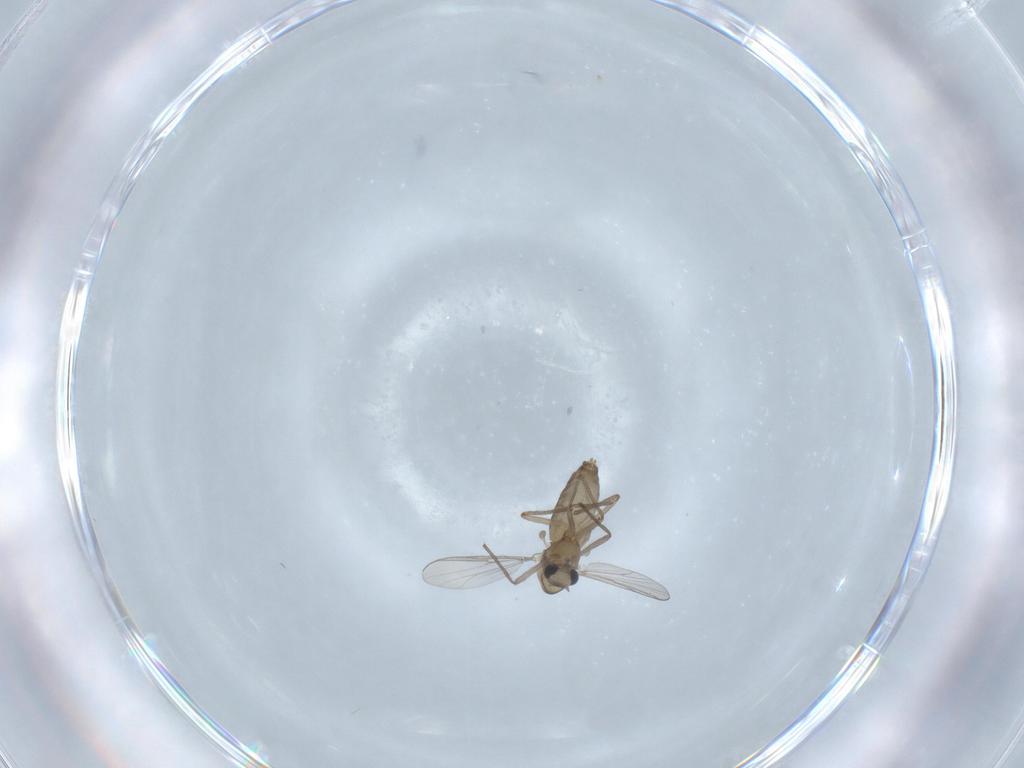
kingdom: Animalia
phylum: Arthropoda
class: Insecta
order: Diptera
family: Chironomidae
